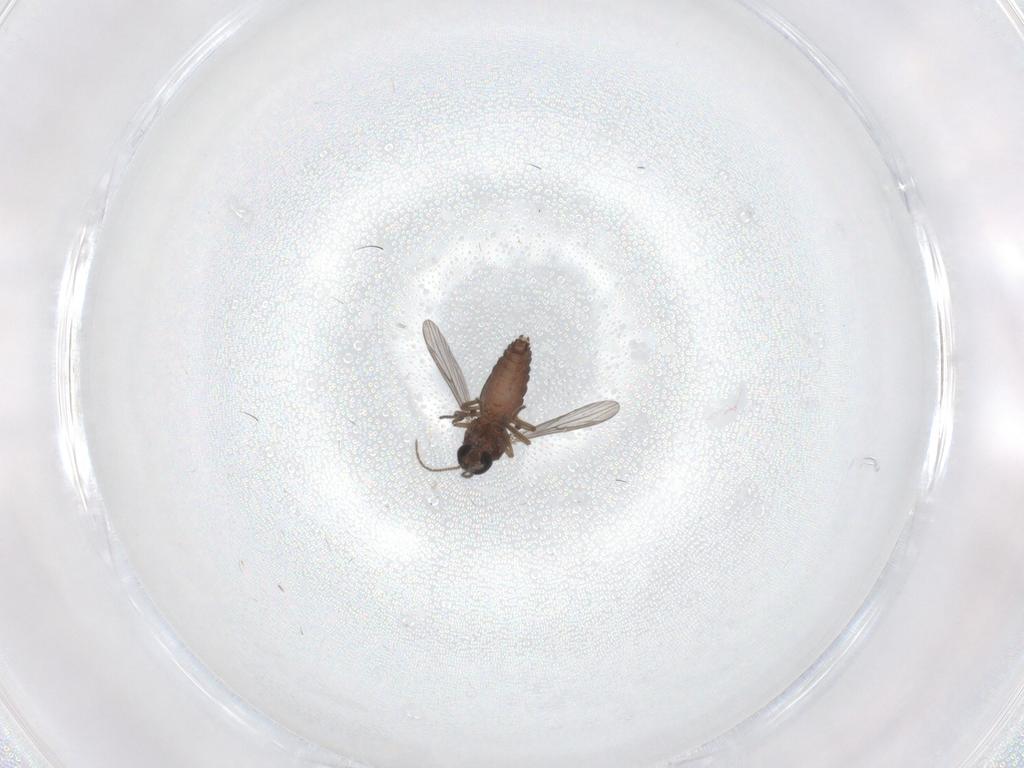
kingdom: Animalia
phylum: Arthropoda
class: Insecta
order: Diptera
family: Ceratopogonidae
